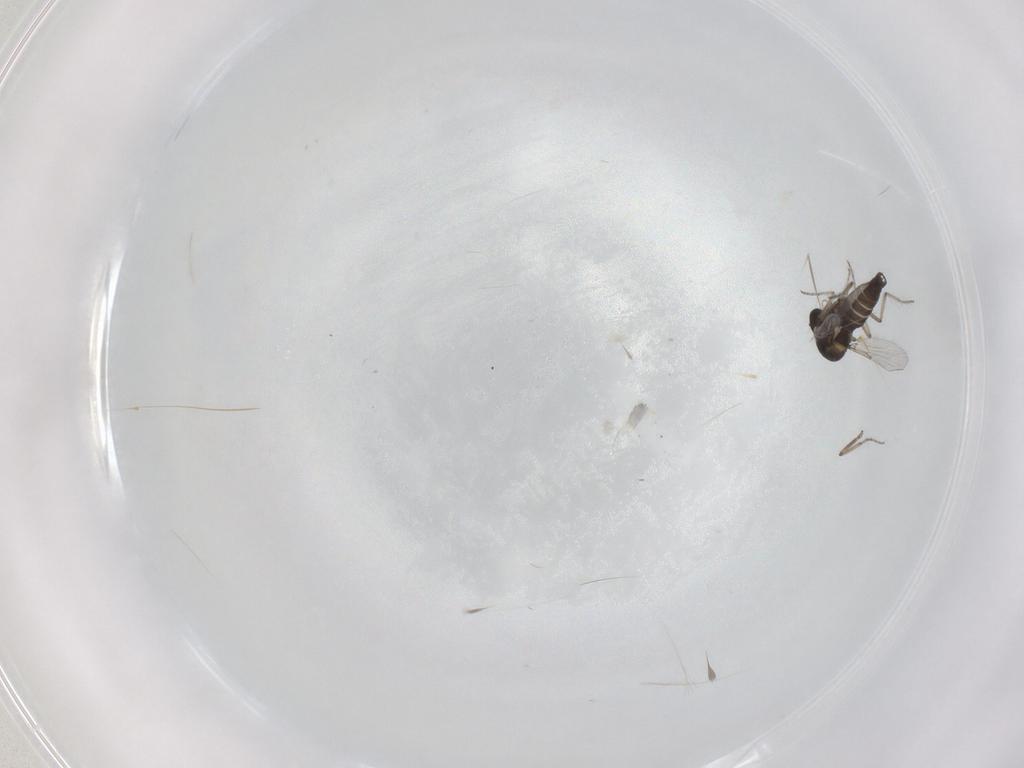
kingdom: Animalia
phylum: Arthropoda
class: Insecta
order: Diptera
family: Ceratopogonidae
